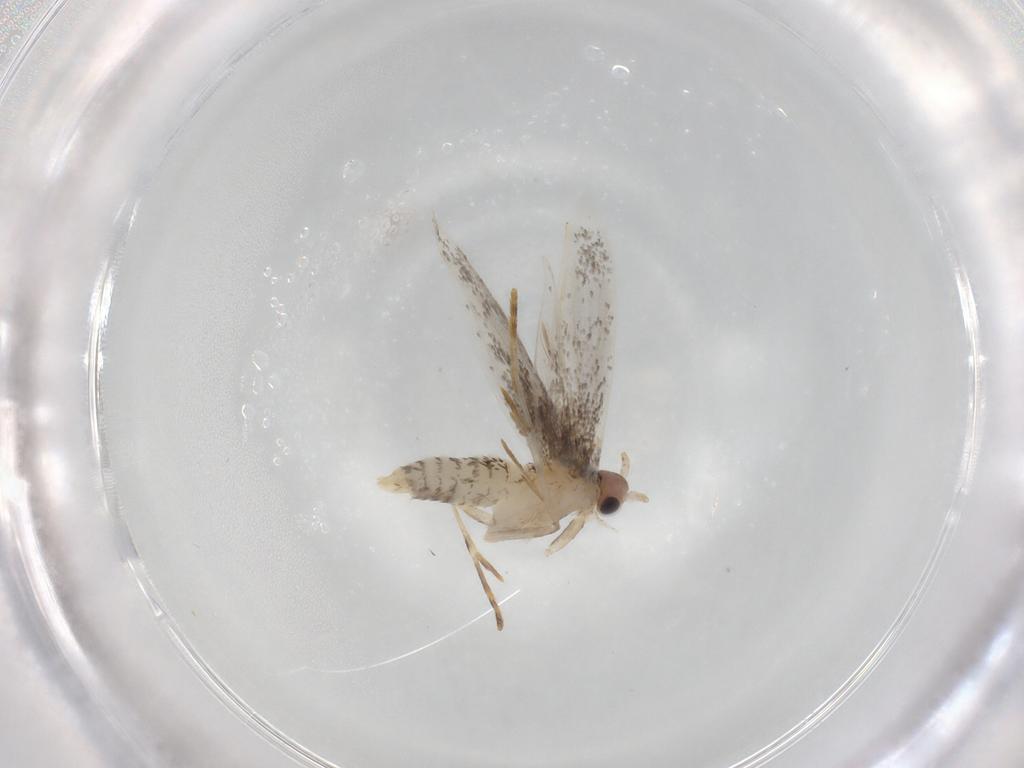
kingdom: Animalia
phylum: Arthropoda
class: Insecta
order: Lepidoptera
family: Tineidae
